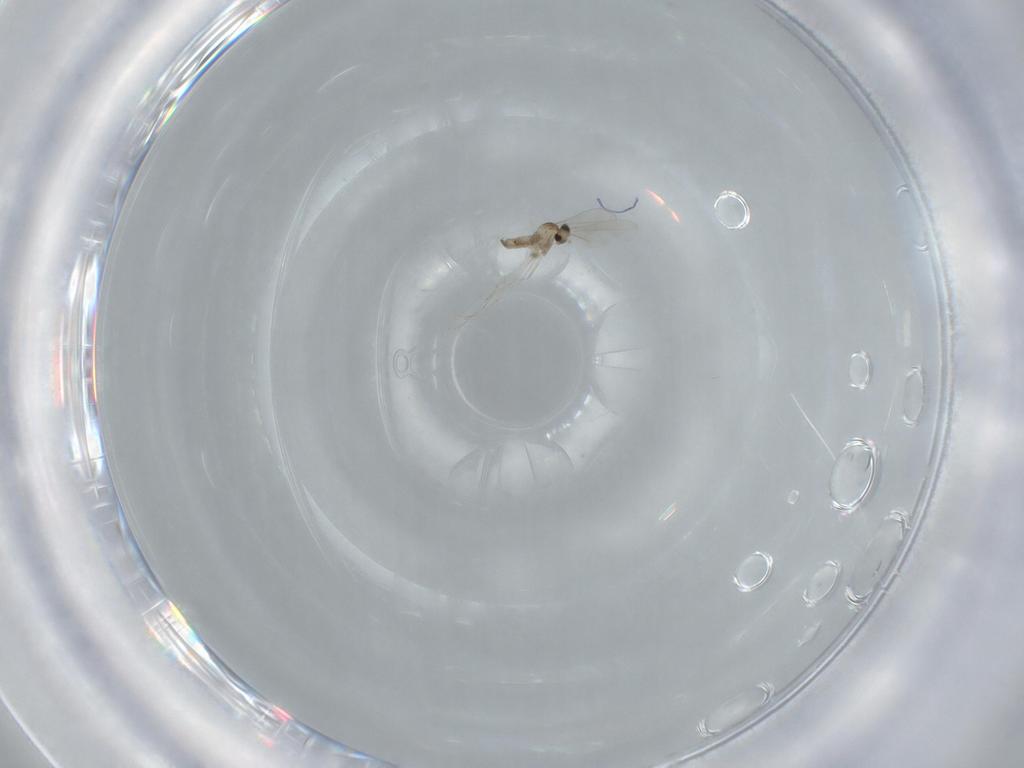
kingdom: Animalia
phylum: Arthropoda
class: Insecta
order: Diptera
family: Cecidomyiidae
